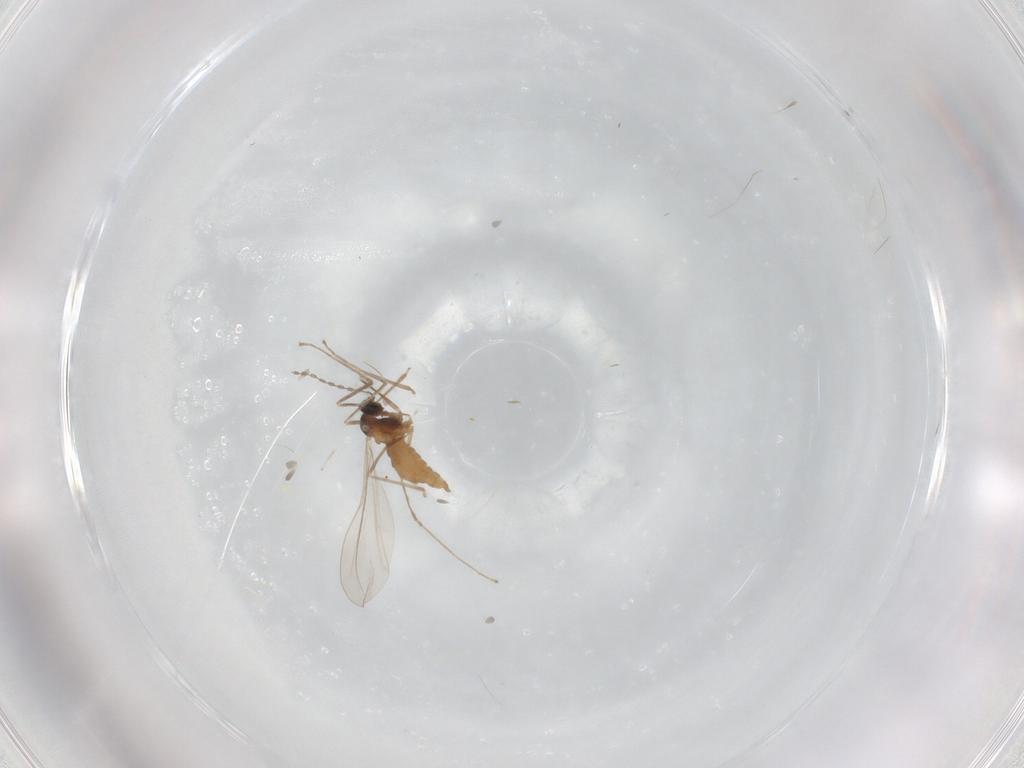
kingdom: Animalia
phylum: Arthropoda
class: Insecta
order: Diptera
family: Cecidomyiidae
